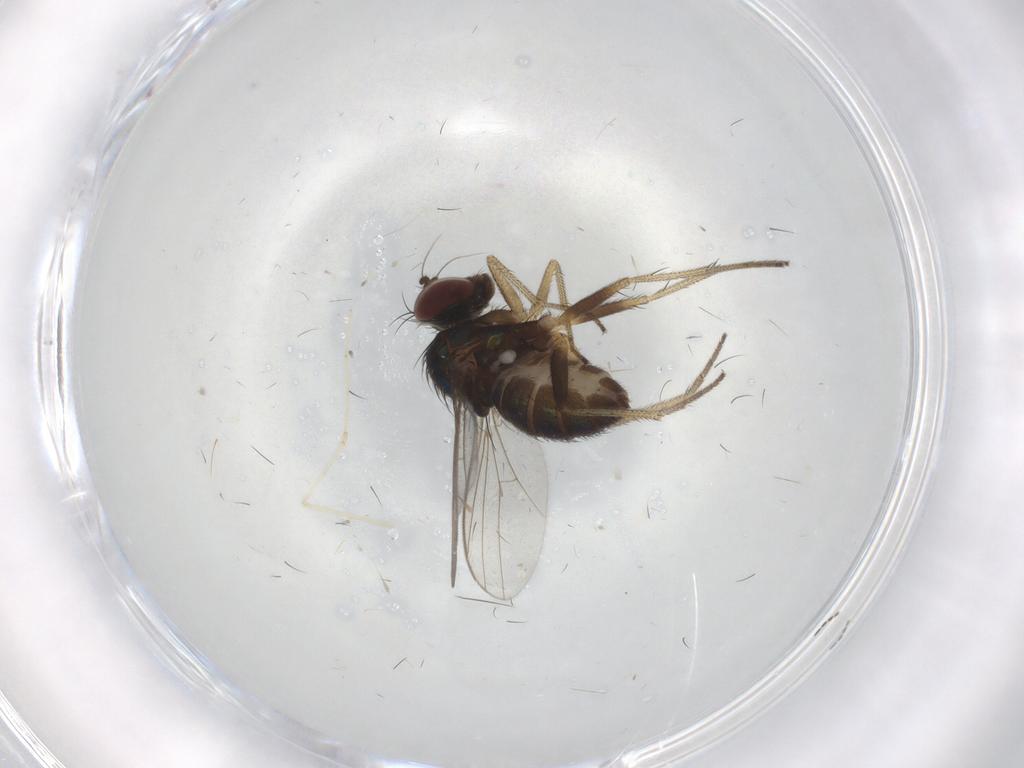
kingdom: Animalia
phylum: Arthropoda
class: Insecta
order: Diptera
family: Dolichopodidae
